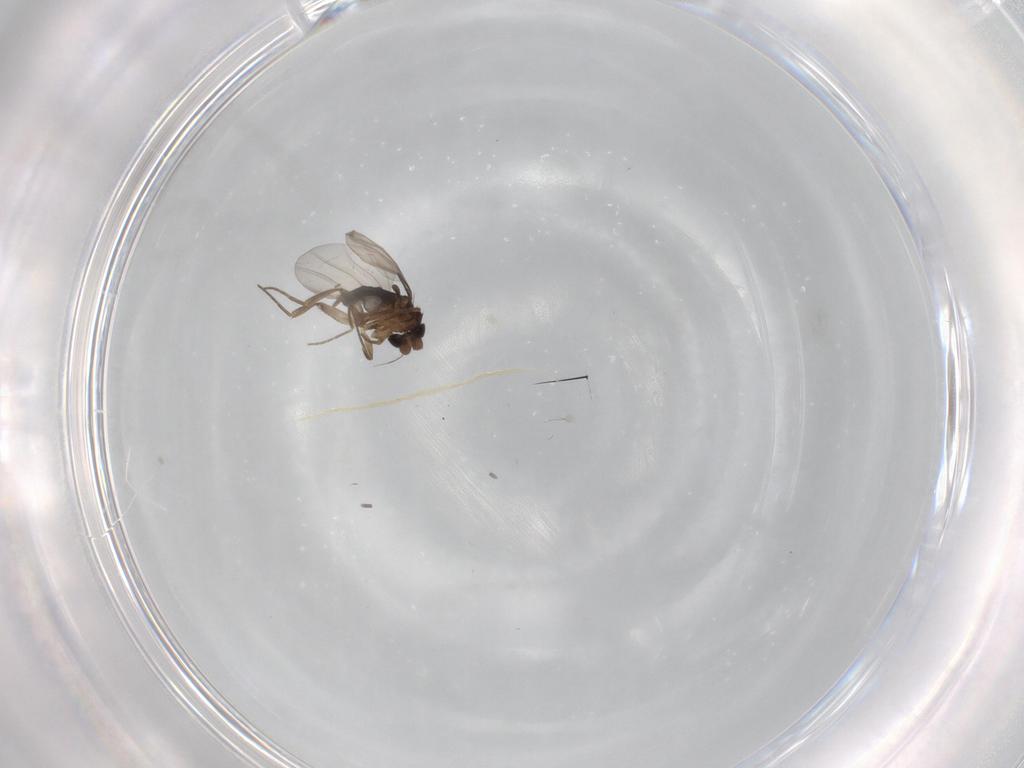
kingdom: Animalia
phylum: Arthropoda
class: Insecta
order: Diptera
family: Phoridae
